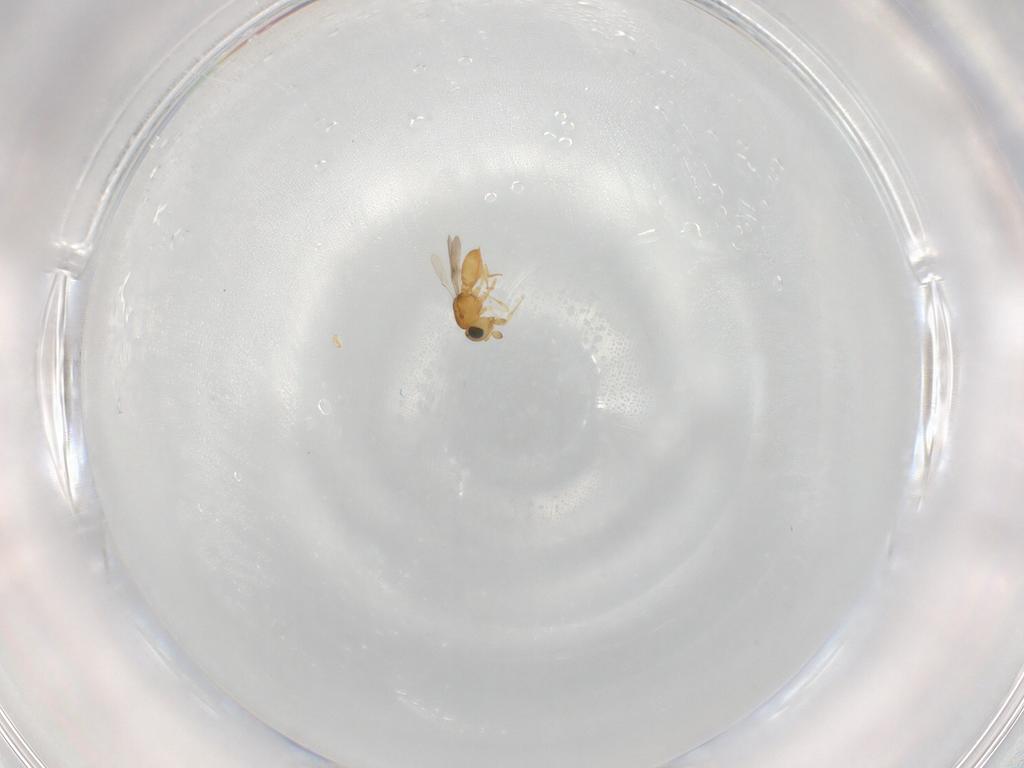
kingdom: Animalia
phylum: Arthropoda
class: Insecta
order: Hymenoptera
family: Scelionidae
